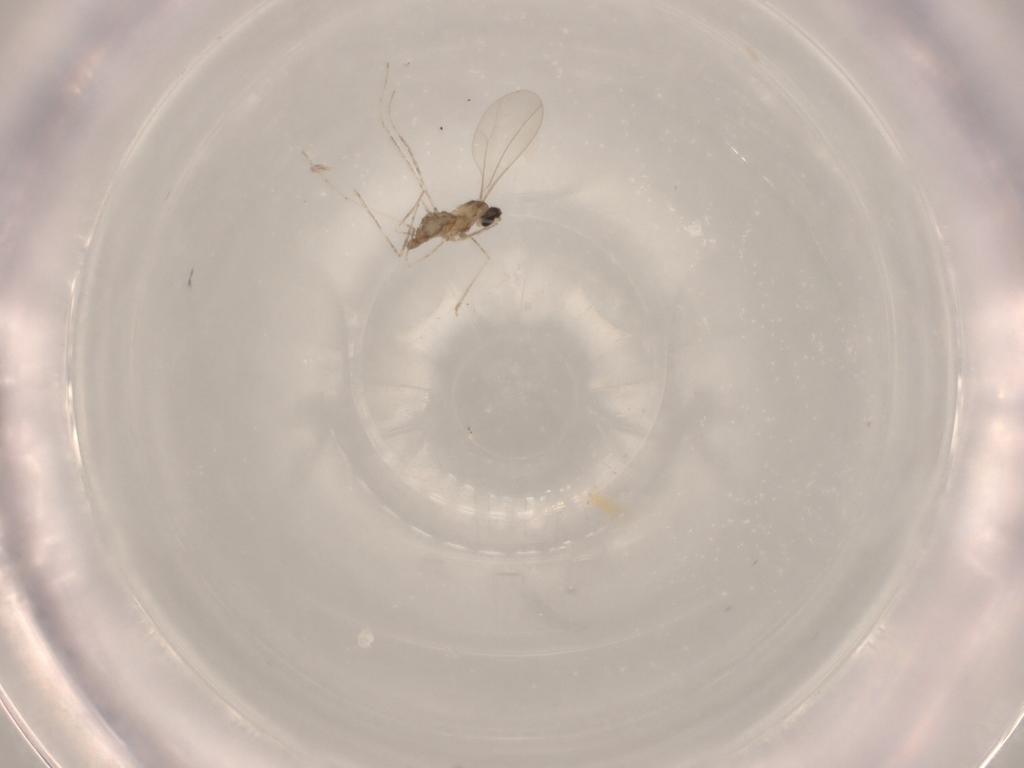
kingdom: Animalia
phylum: Arthropoda
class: Insecta
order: Diptera
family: Cecidomyiidae
